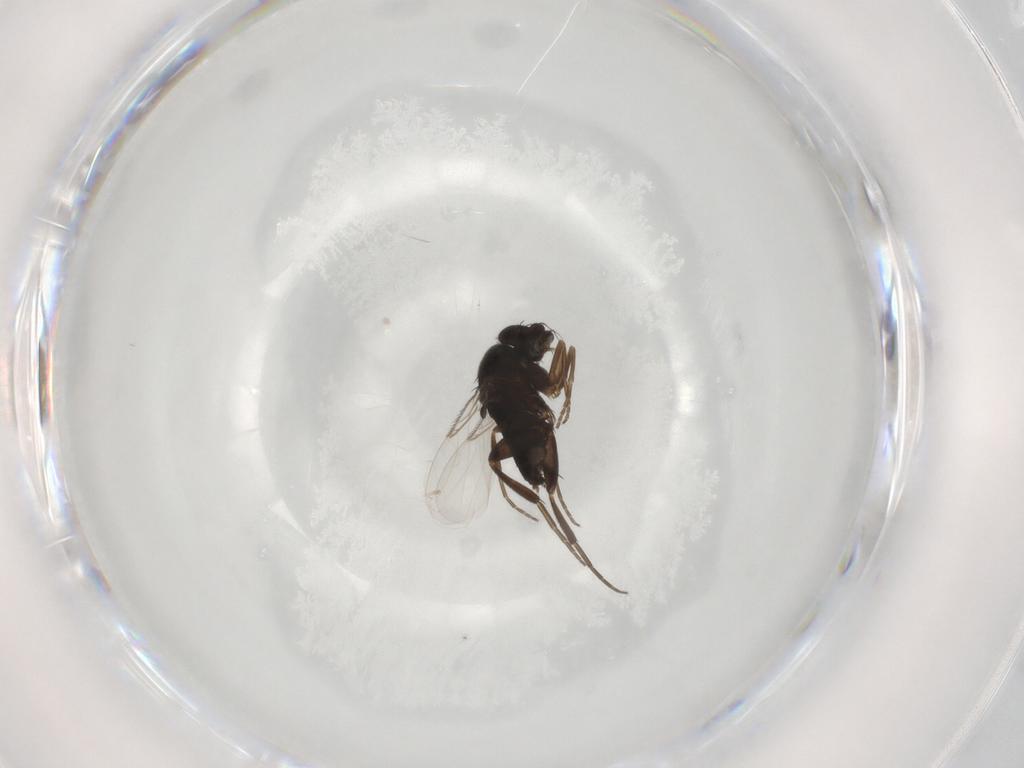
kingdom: Animalia
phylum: Arthropoda
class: Insecta
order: Diptera
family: Phoridae
